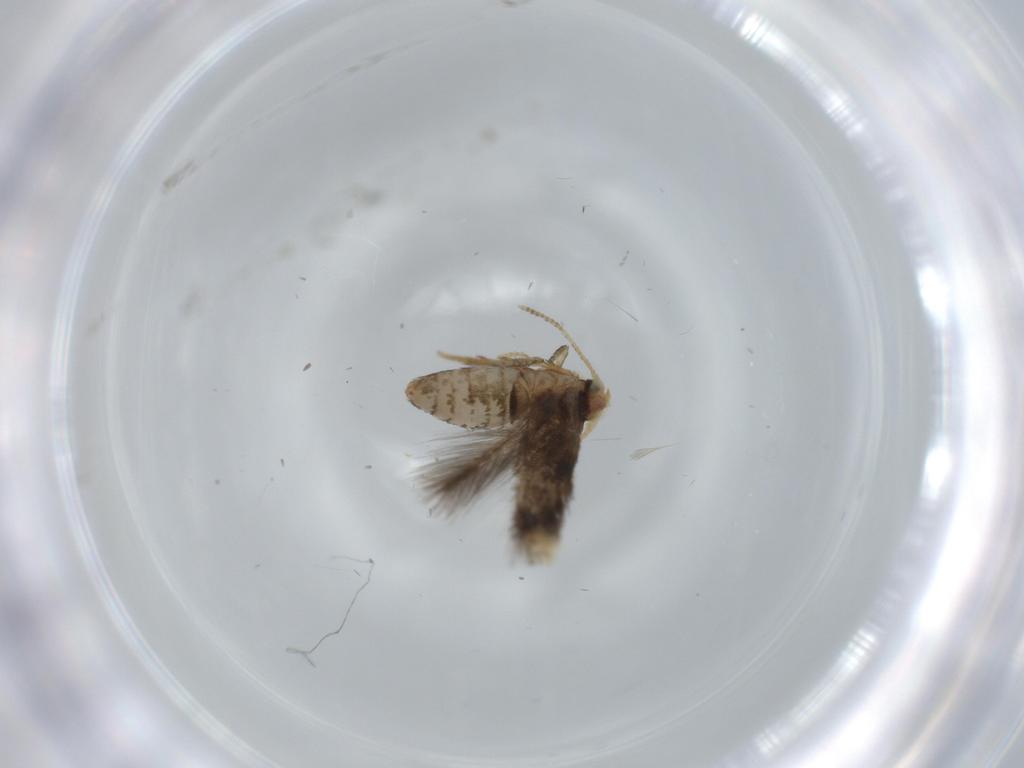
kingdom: Animalia
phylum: Arthropoda
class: Insecta
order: Lepidoptera
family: Nepticulidae
